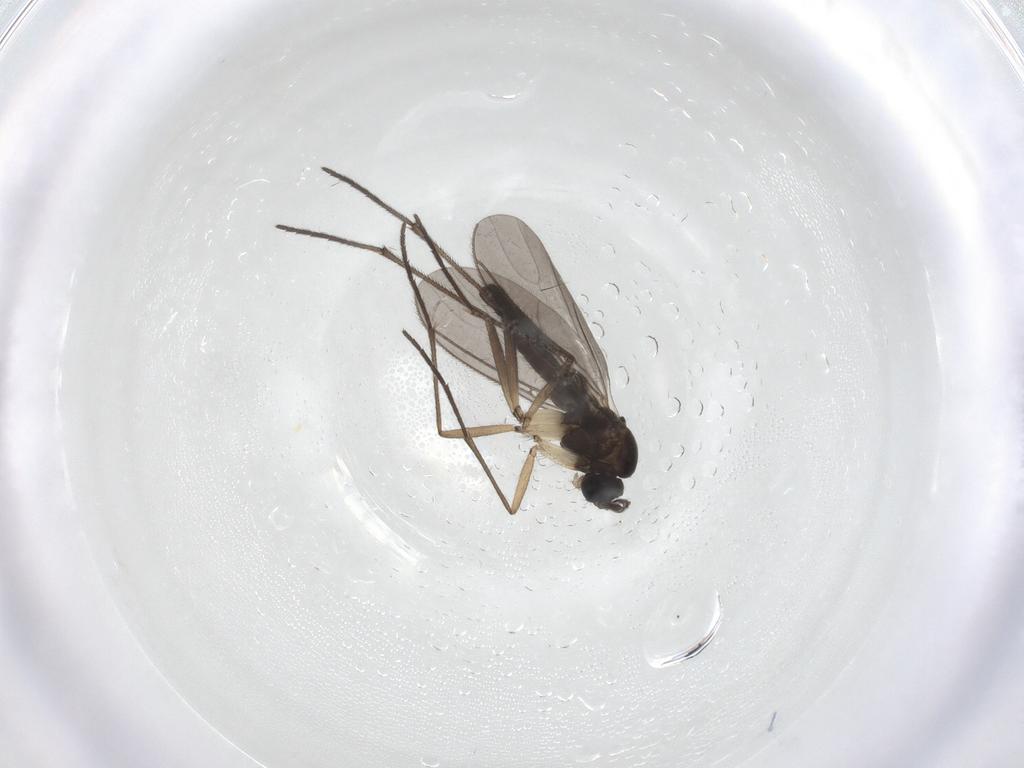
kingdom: Animalia
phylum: Arthropoda
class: Insecta
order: Diptera
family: Sciaridae
